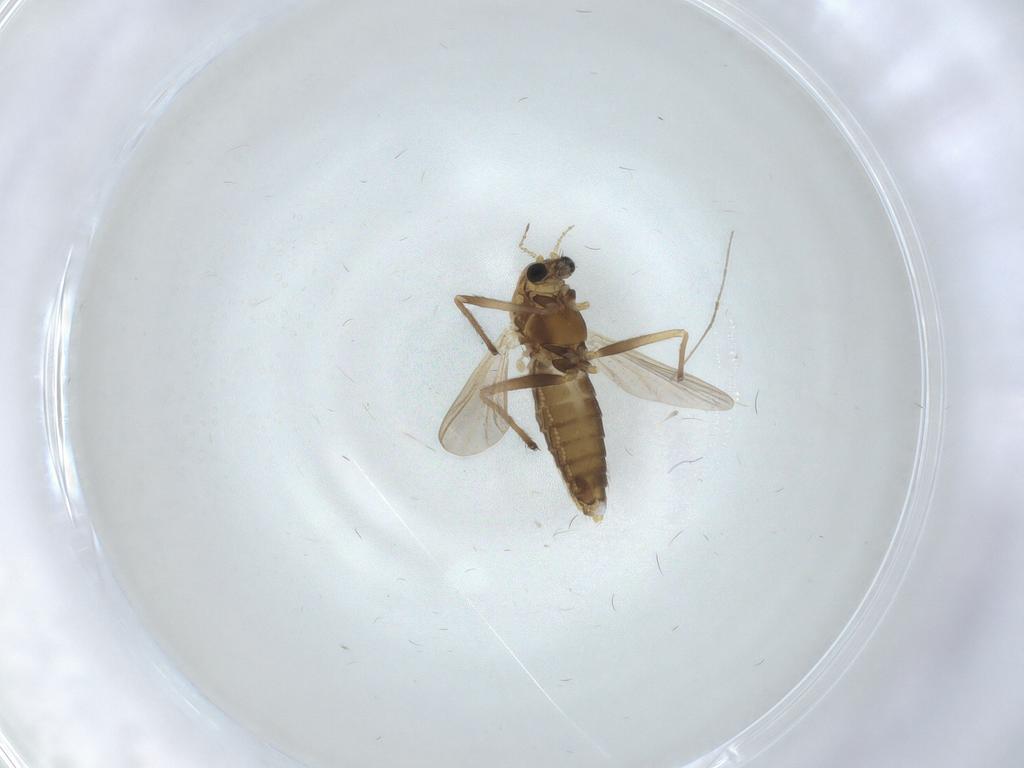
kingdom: Animalia
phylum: Arthropoda
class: Insecta
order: Diptera
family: Chironomidae
